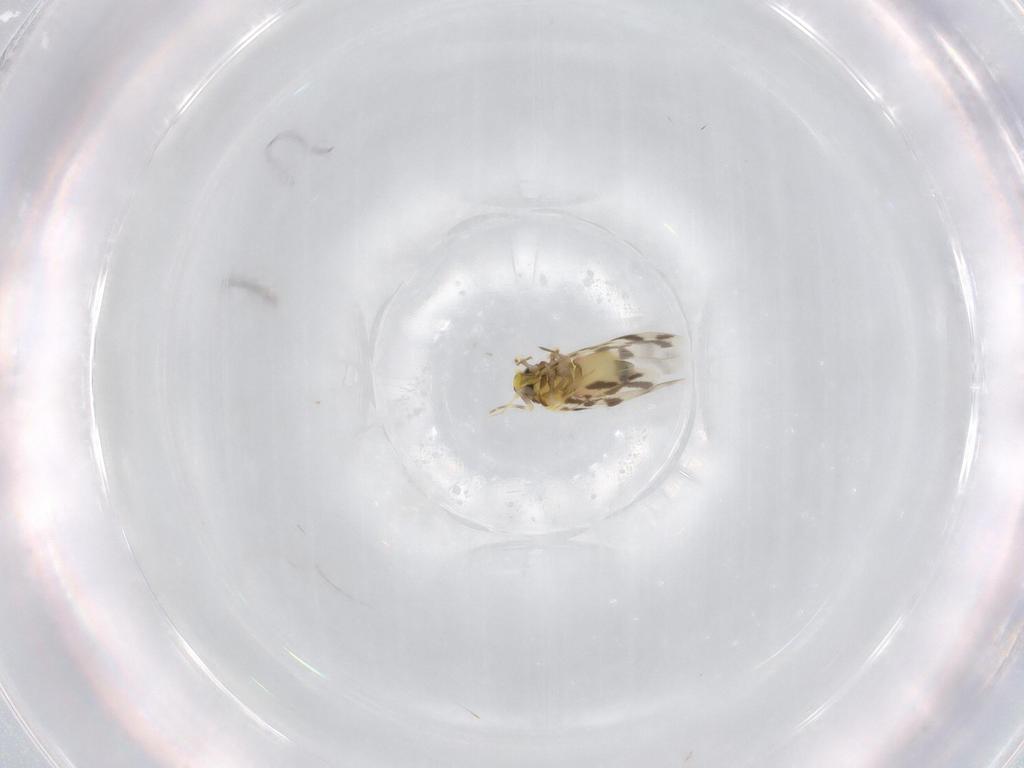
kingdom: Animalia
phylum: Arthropoda
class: Insecta
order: Hemiptera
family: Aleyrodidae
